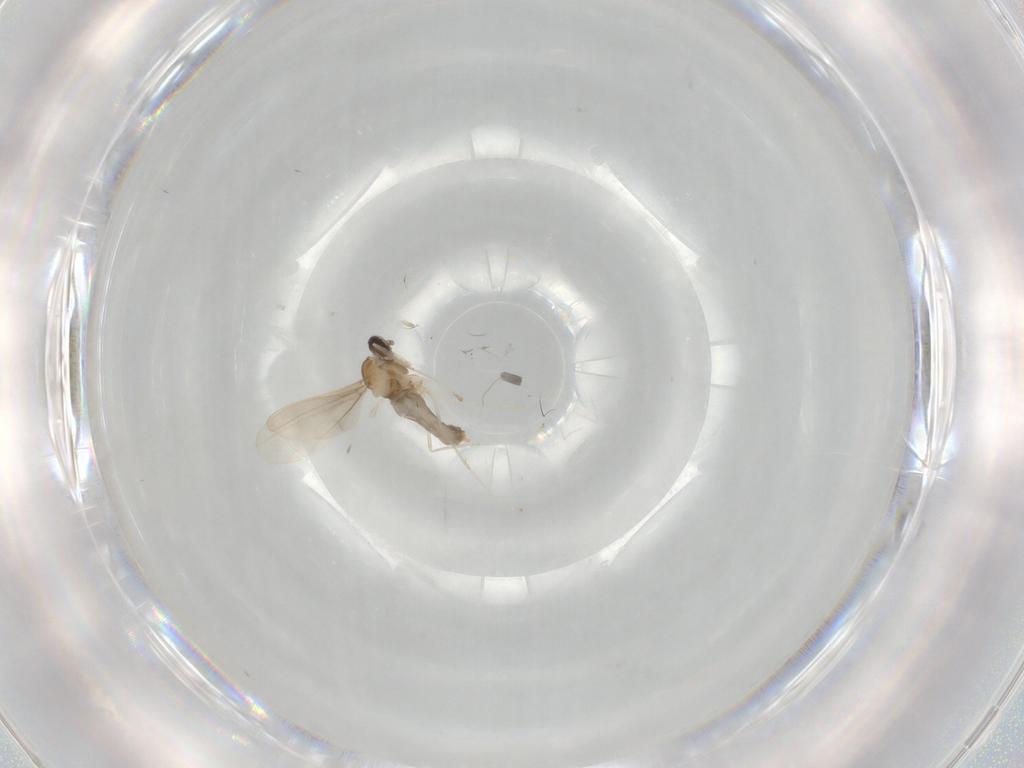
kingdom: Animalia
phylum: Arthropoda
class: Insecta
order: Diptera
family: Cecidomyiidae
